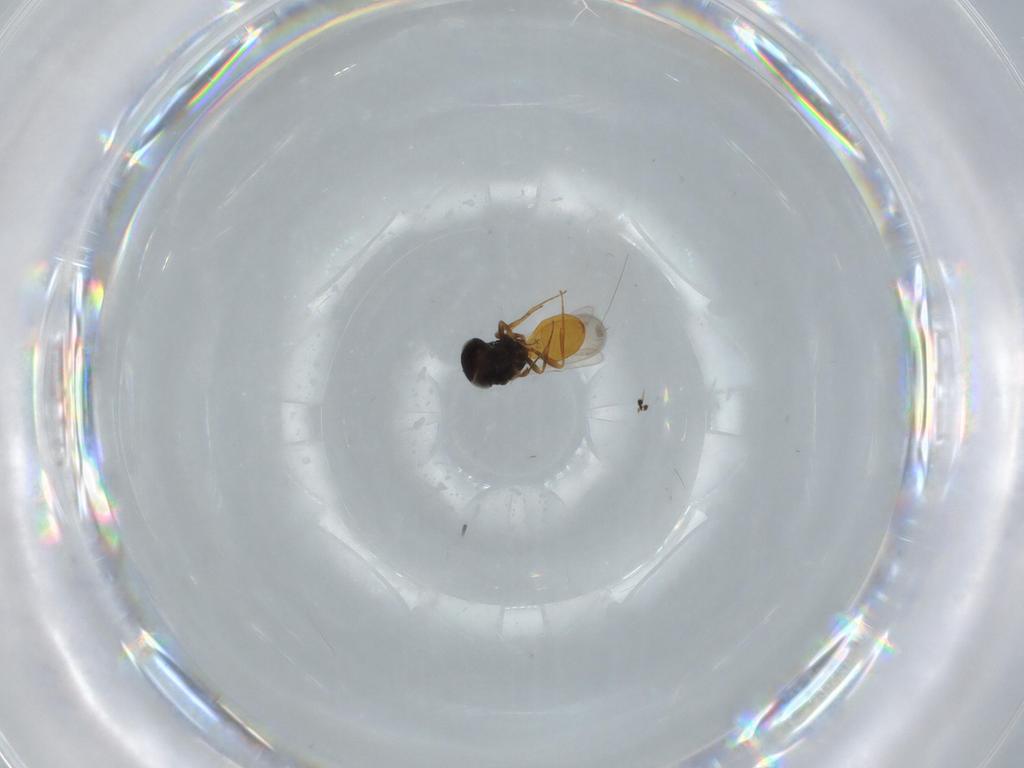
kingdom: Animalia
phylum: Arthropoda
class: Insecta
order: Hymenoptera
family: Scelionidae
